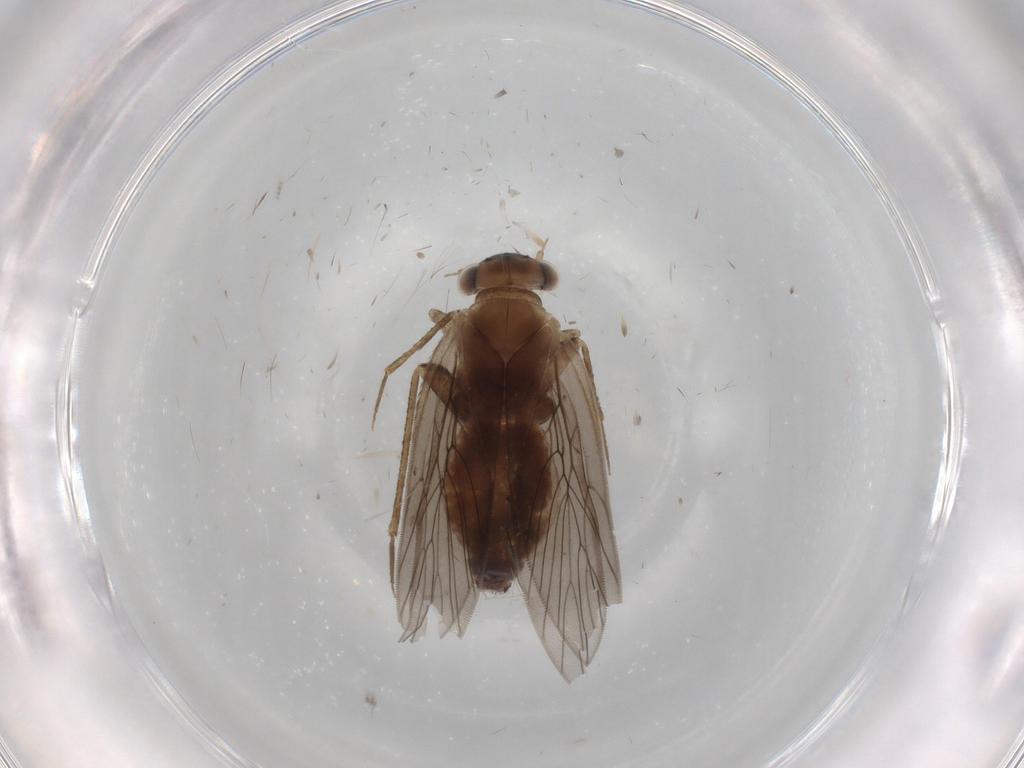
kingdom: Animalia
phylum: Arthropoda
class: Insecta
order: Psocodea
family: Lepidopsocidae
